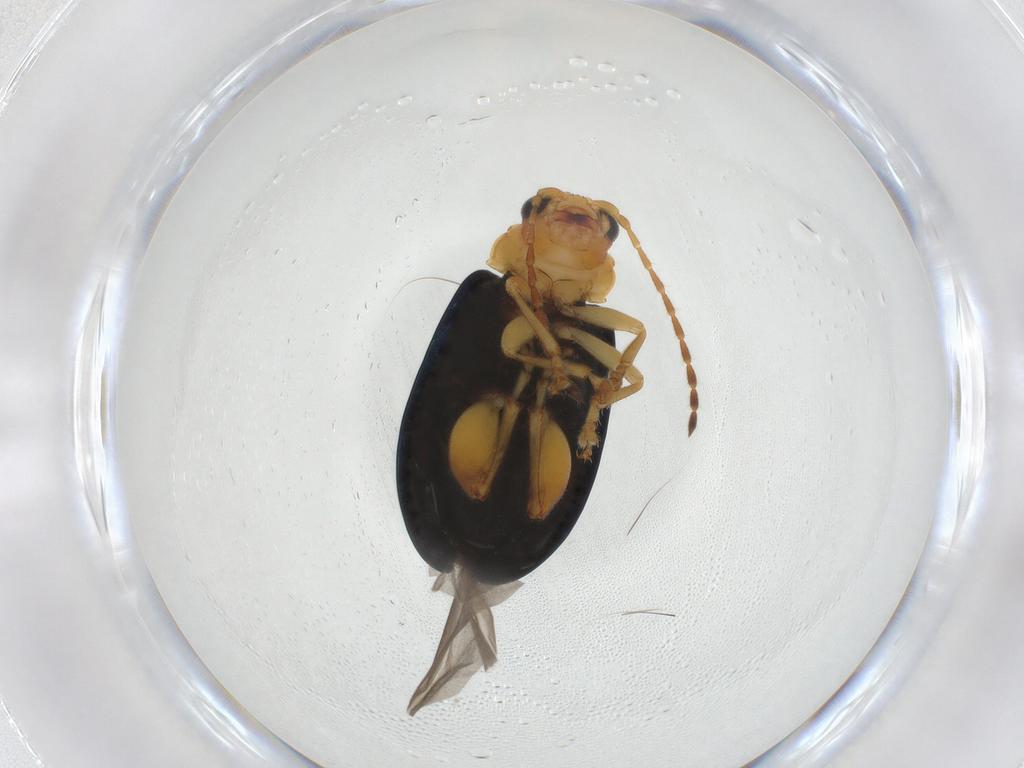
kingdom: Animalia
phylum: Arthropoda
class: Insecta
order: Coleoptera
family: Chrysomelidae
